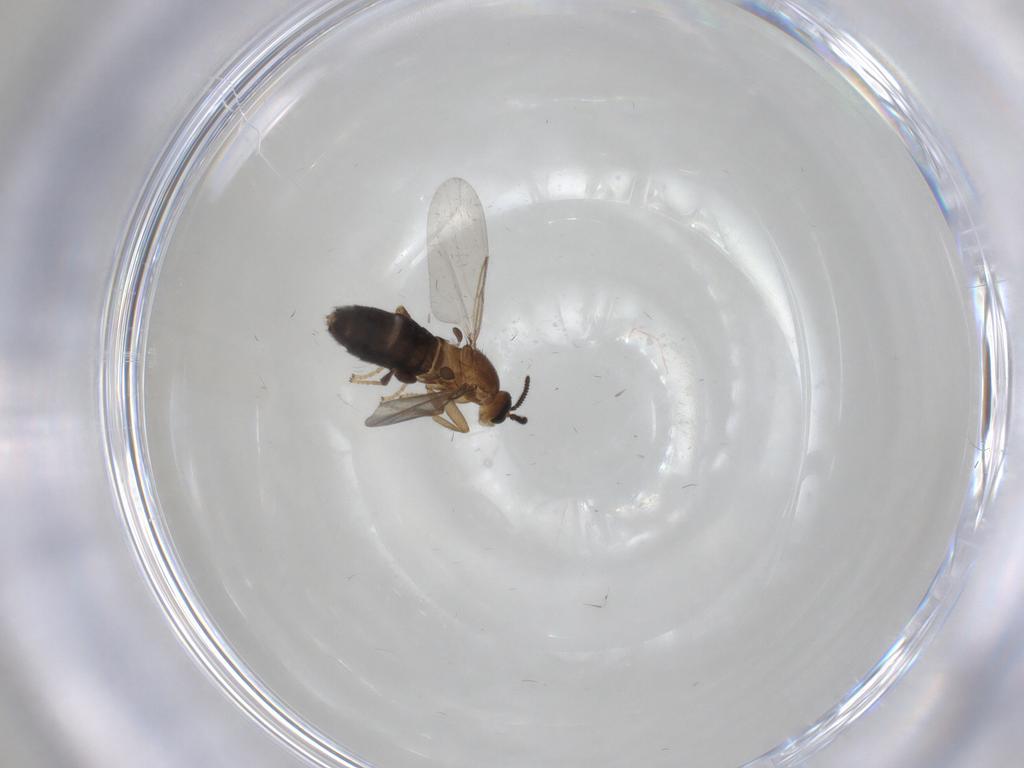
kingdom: Animalia
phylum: Arthropoda
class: Insecta
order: Diptera
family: Scatopsidae
